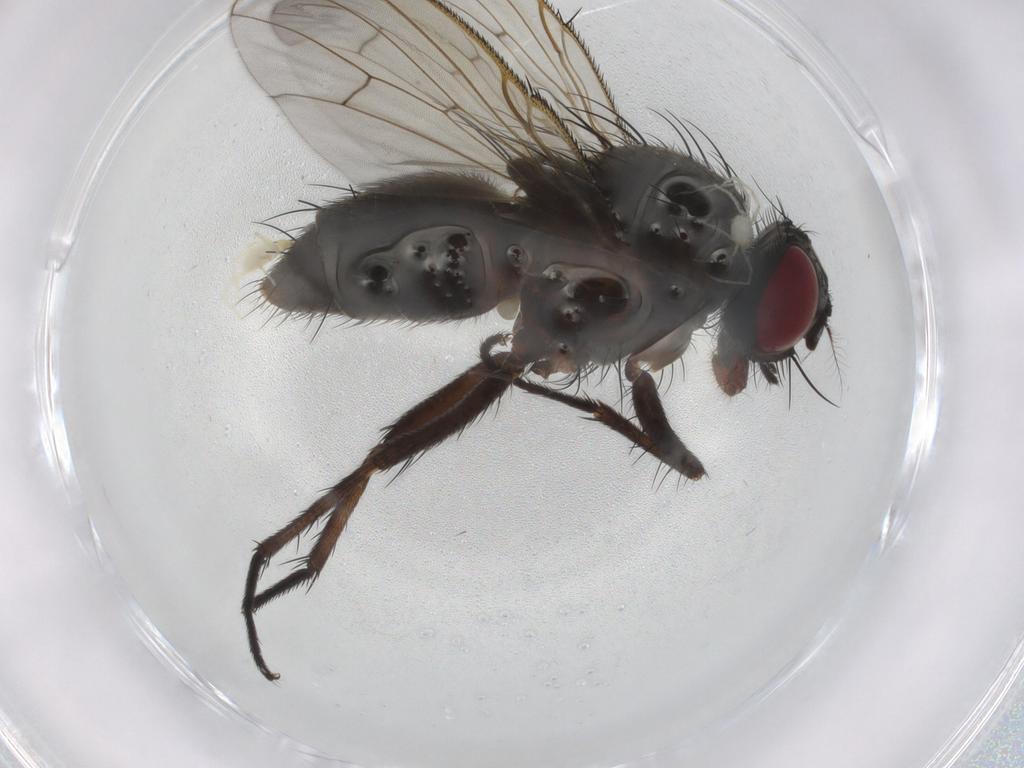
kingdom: Animalia
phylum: Arthropoda
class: Insecta
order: Diptera
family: Muscidae
